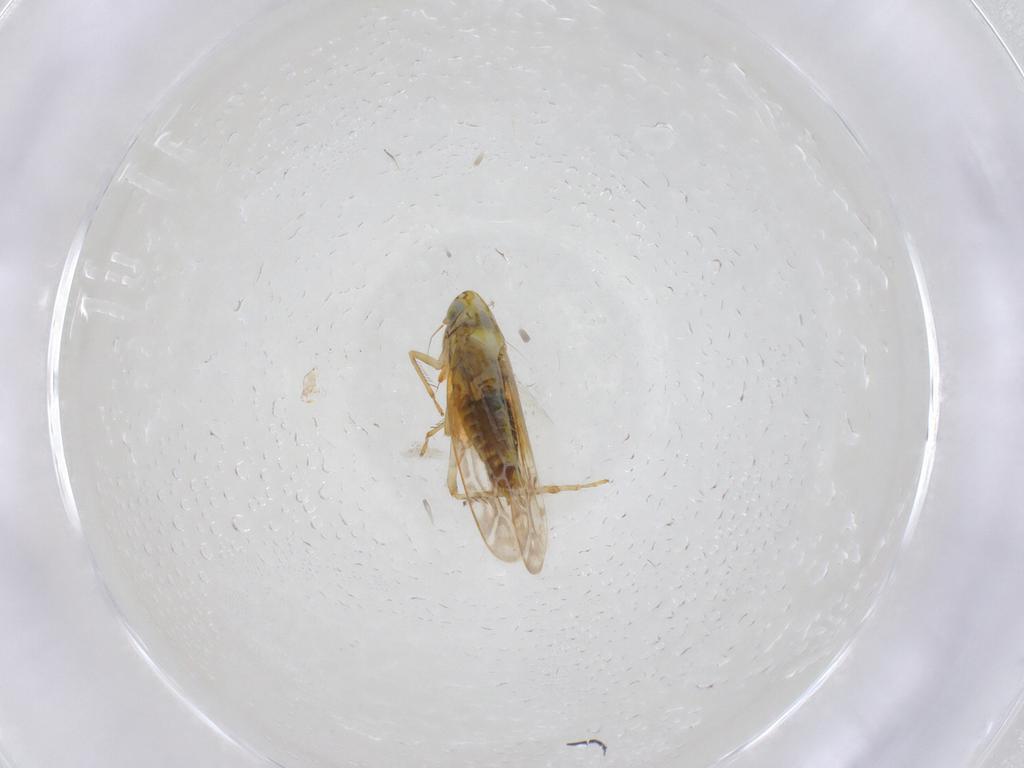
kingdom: Animalia
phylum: Arthropoda
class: Insecta
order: Hemiptera
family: Cicadellidae
